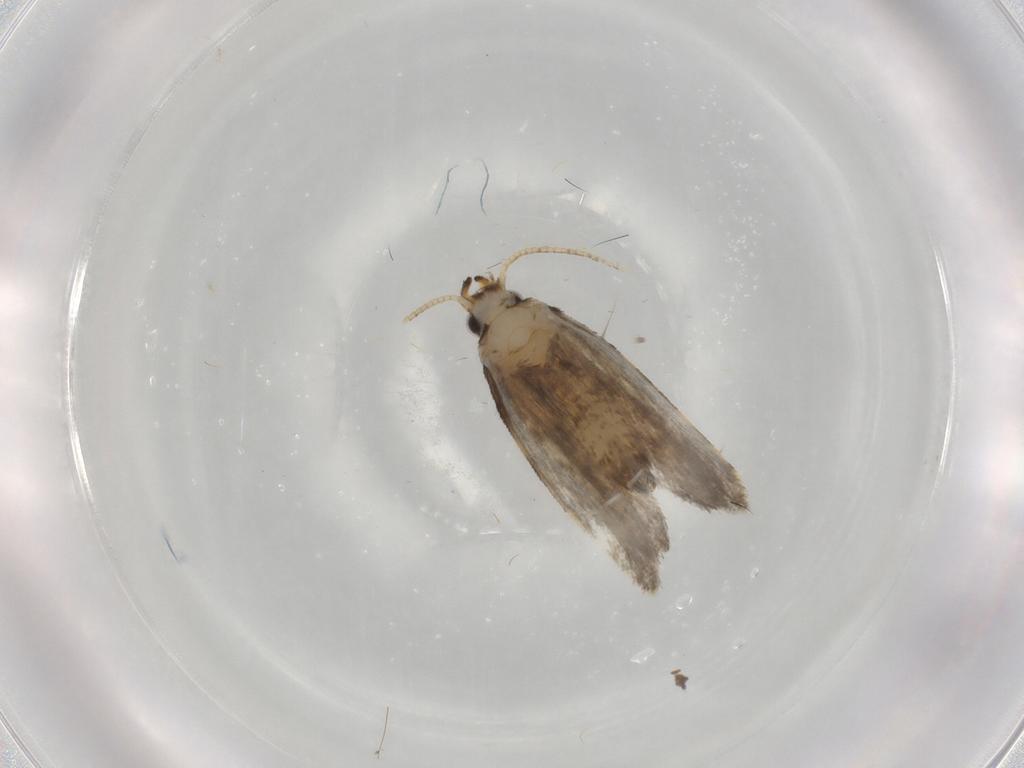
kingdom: Animalia
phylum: Arthropoda
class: Insecta
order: Lepidoptera
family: Psychidae
